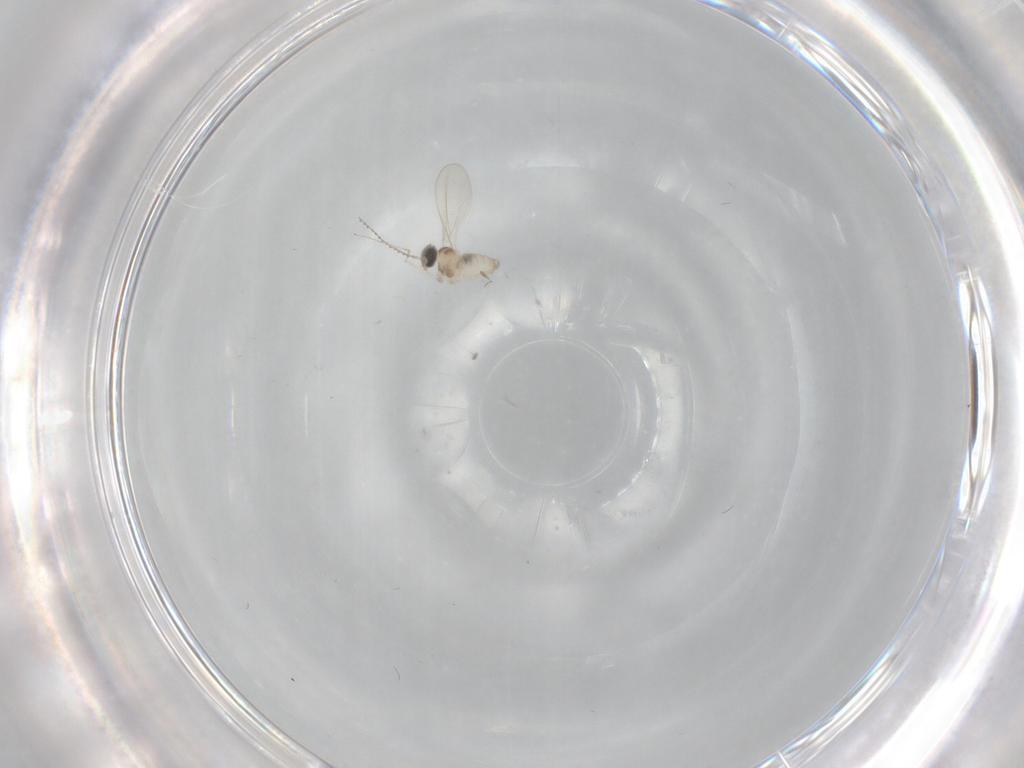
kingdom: Animalia
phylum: Arthropoda
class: Insecta
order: Diptera
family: Cecidomyiidae
